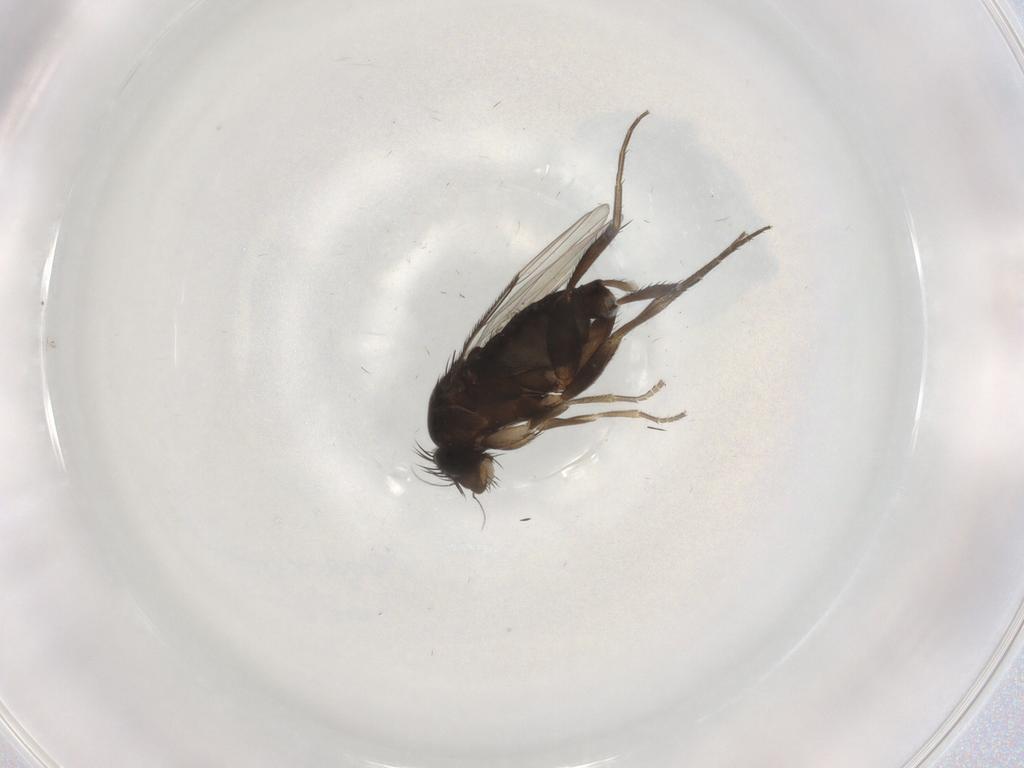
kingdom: Animalia
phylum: Arthropoda
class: Insecta
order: Diptera
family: Phoridae
